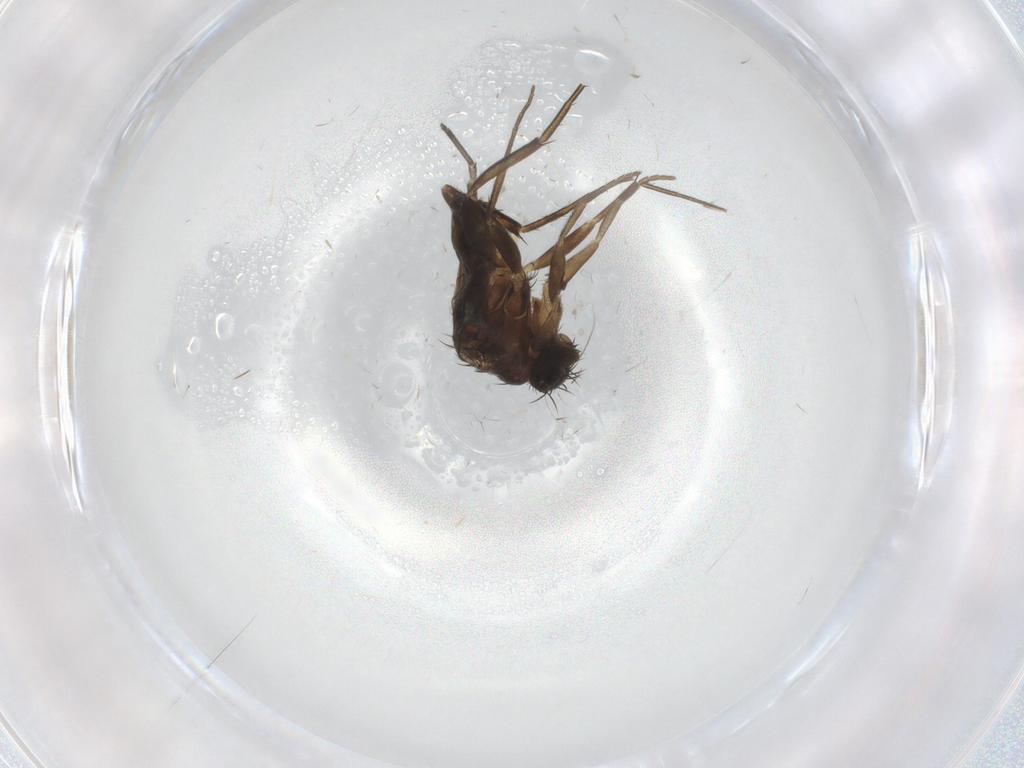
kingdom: Animalia
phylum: Arthropoda
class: Insecta
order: Diptera
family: Phoridae
